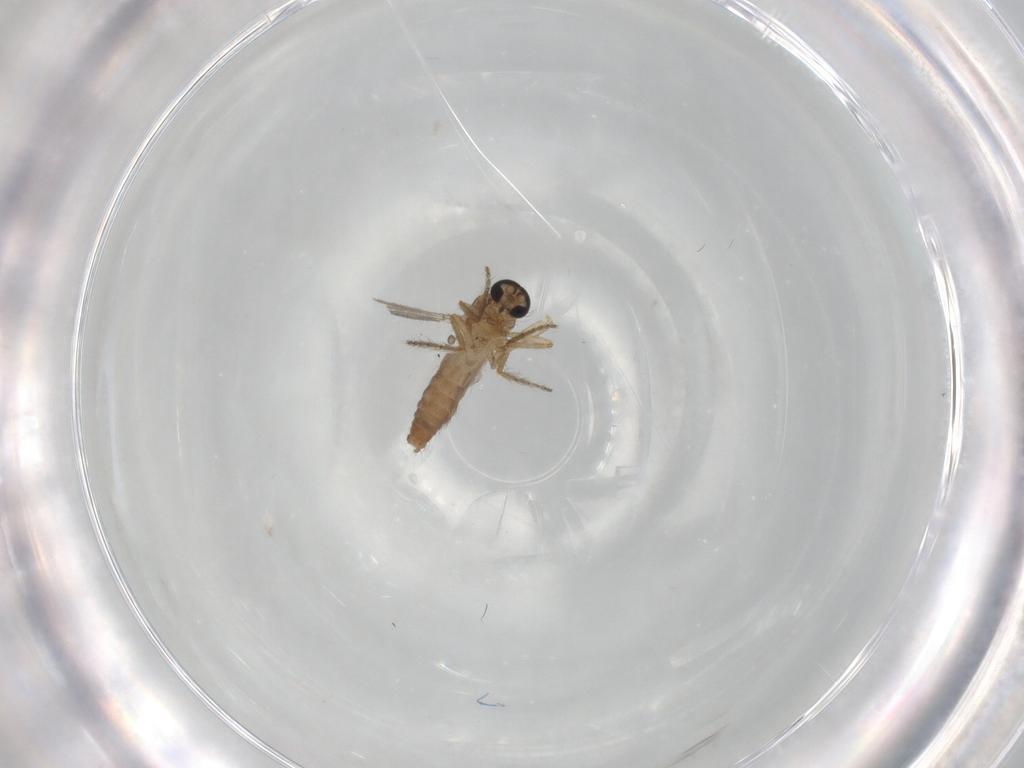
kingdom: Animalia
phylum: Arthropoda
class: Insecta
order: Diptera
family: Ceratopogonidae
